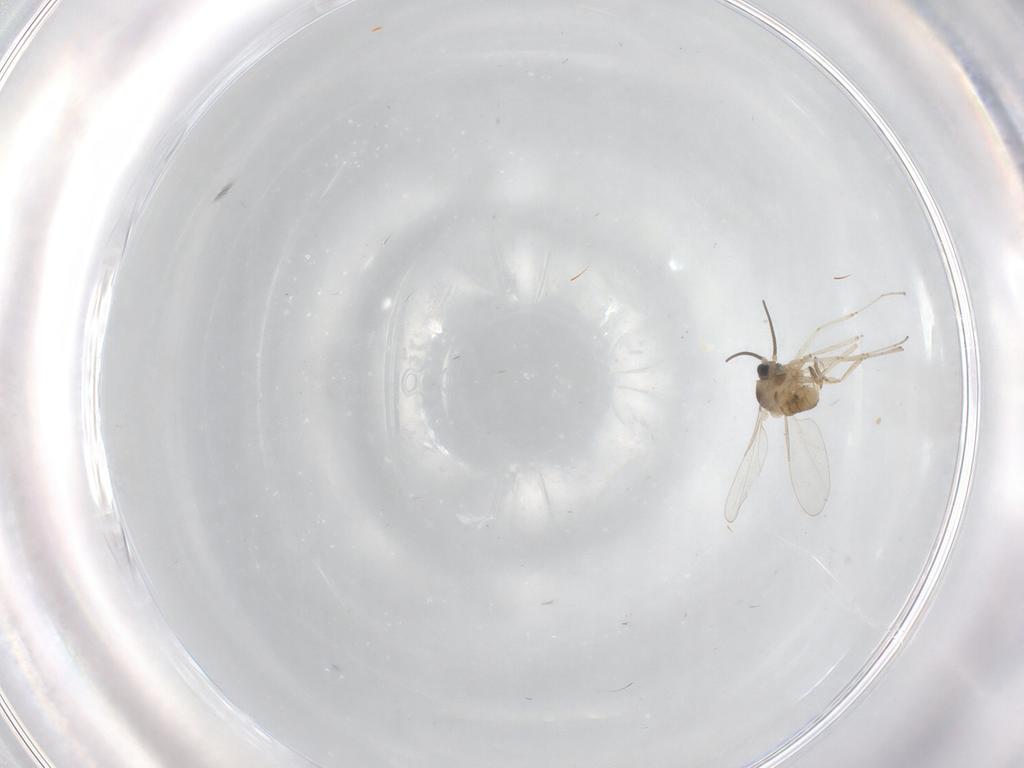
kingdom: Animalia
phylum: Arthropoda
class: Insecta
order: Diptera
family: Cecidomyiidae
